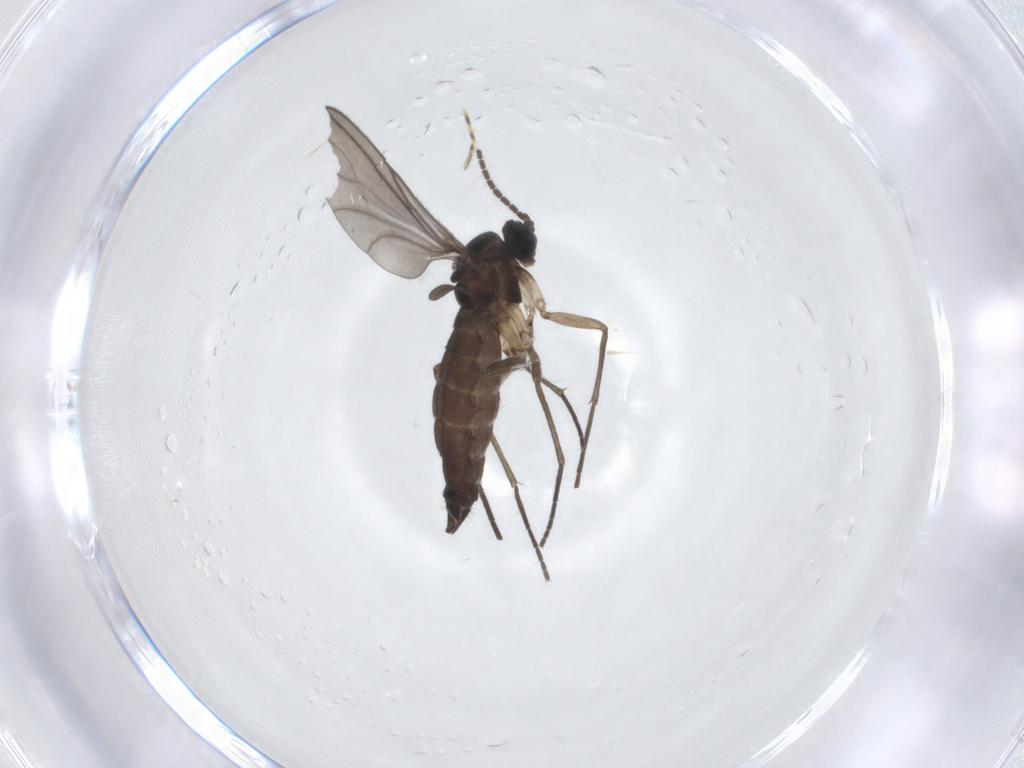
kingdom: Animalia
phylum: Arthropoda
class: Insecta
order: Diptera
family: Sciaridae
